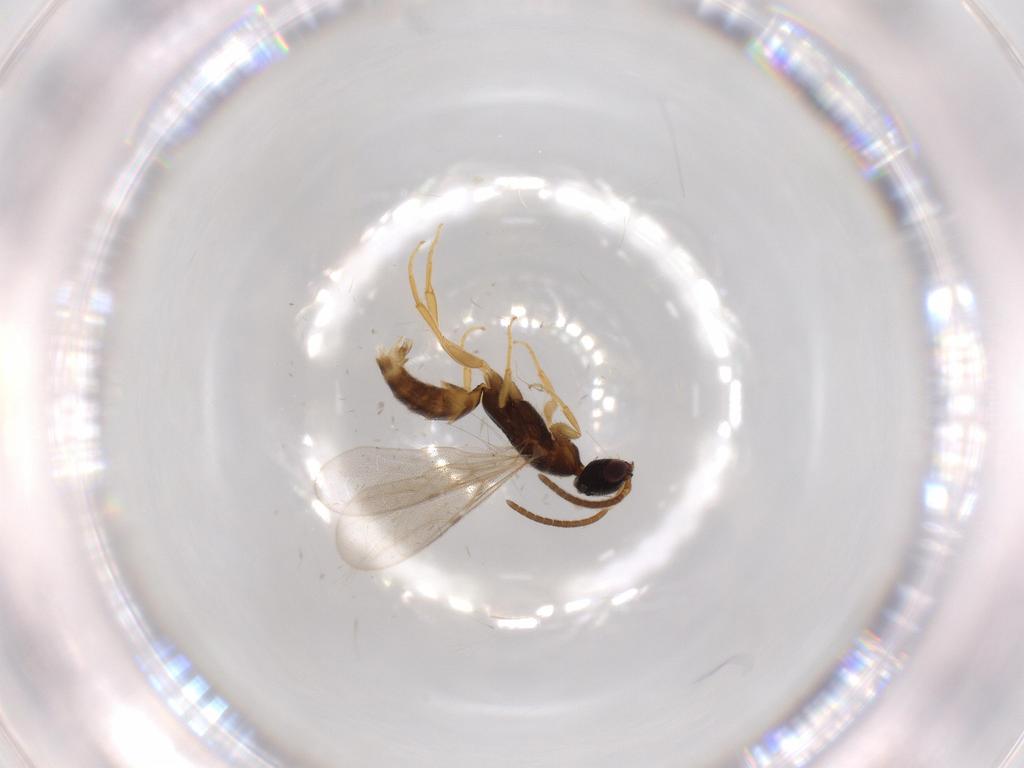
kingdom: Animalia
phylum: Arthropoda
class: Insecta
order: Hymenoptera
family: Bethylidae
